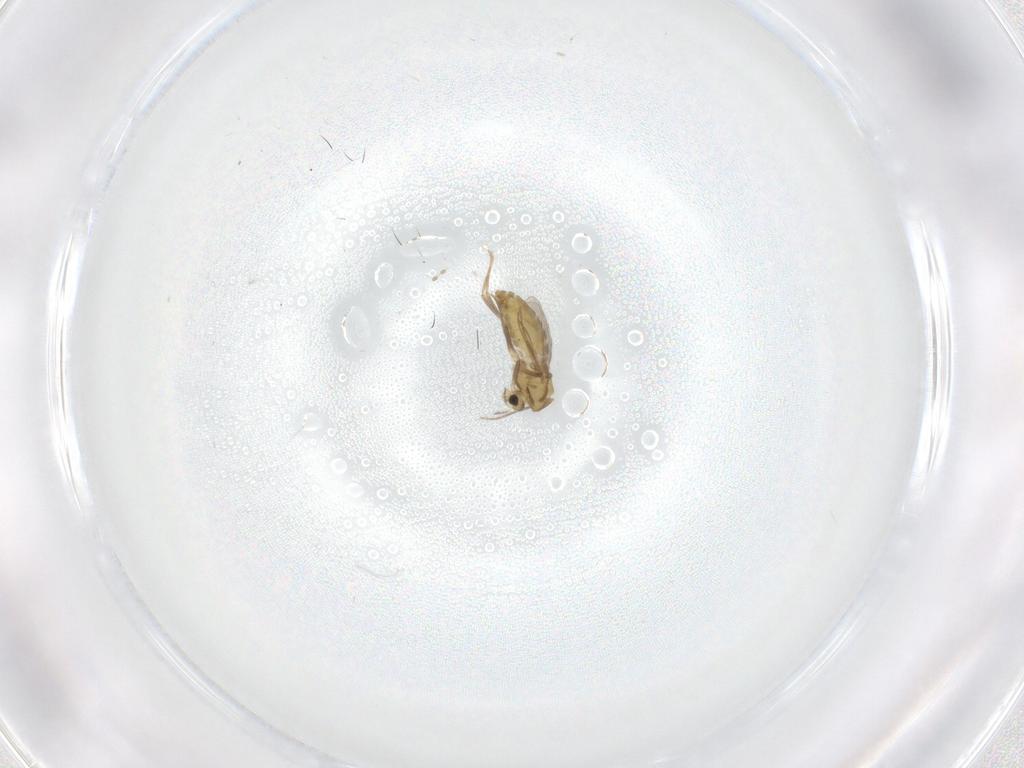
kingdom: Animalia
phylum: Arthropoda
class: Insecta
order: Diptera
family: Chironomidae
